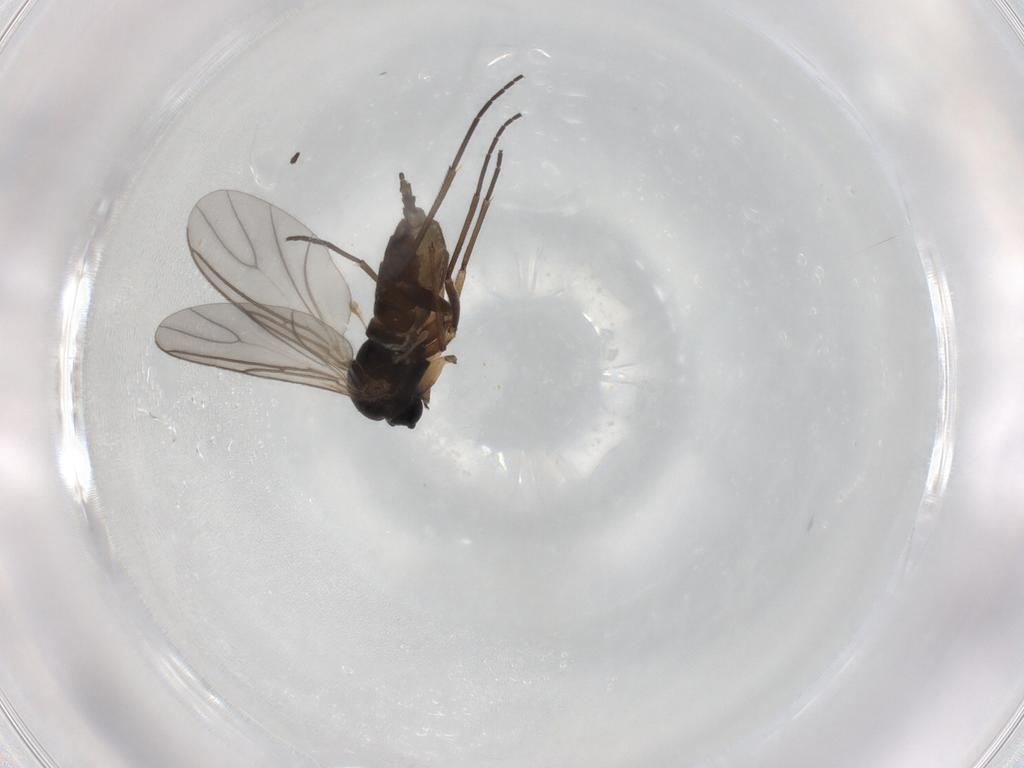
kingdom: Animalia
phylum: Arthropoda
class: Insecta
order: Diptera
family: Sciaridae
